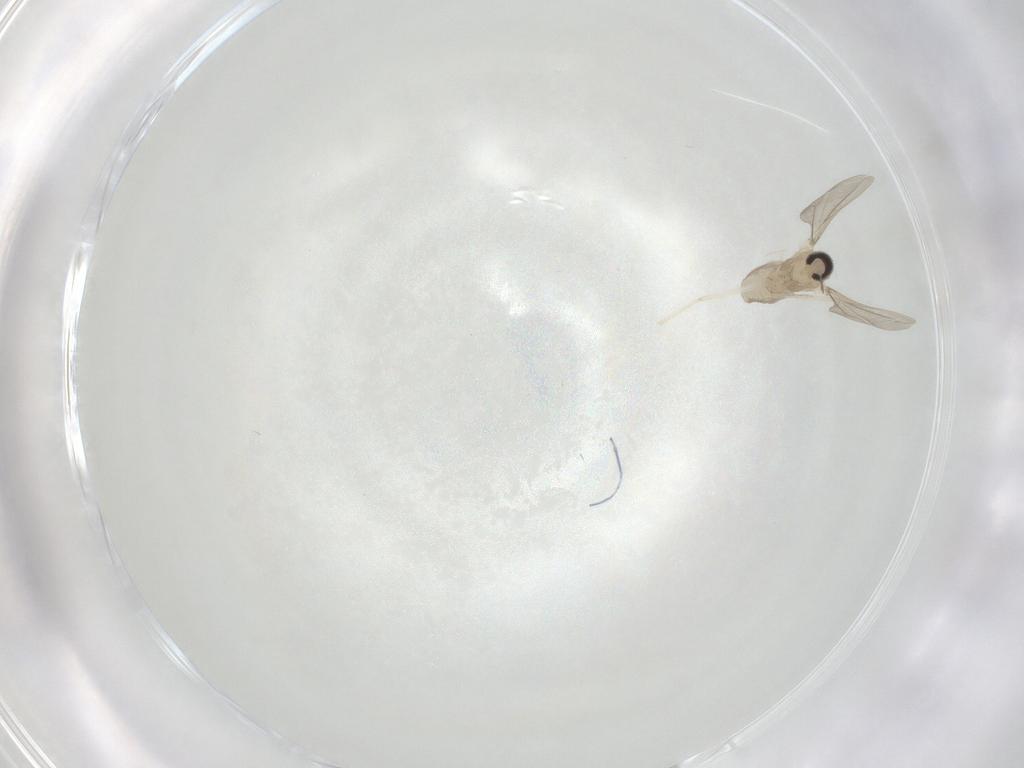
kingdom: Animalia
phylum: Arthropoda
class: Insecta
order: Diptera
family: Cecidomyiidae
